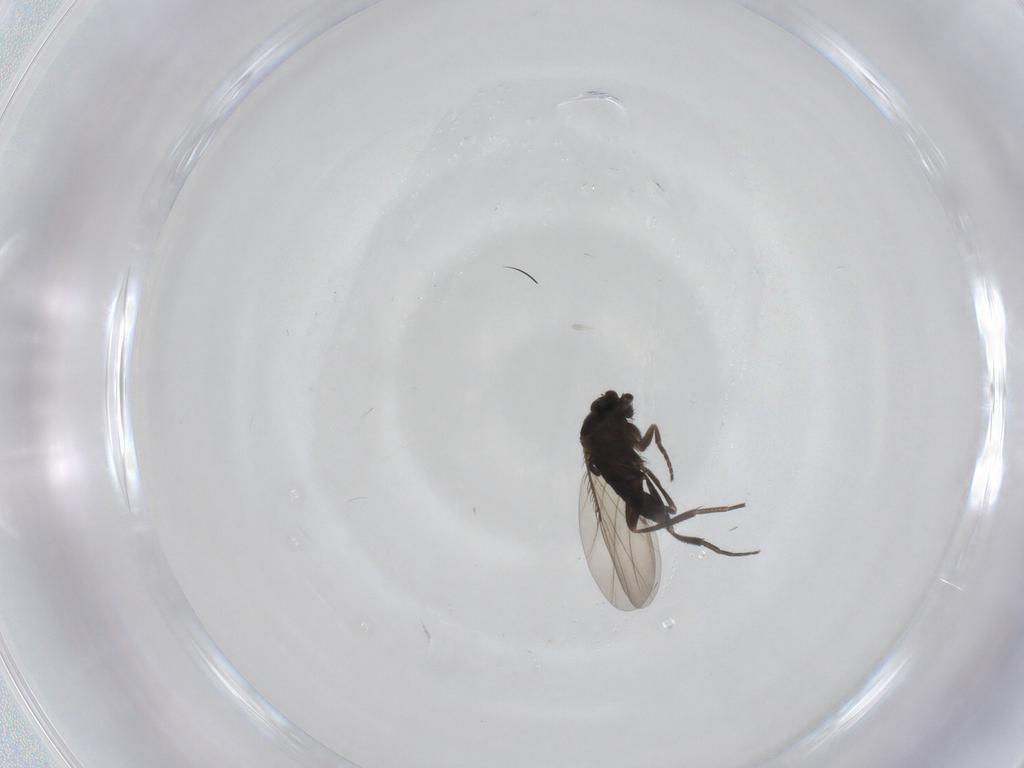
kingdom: Animalia
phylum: Arthropoda
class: Insecta
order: Diptera
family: Phoridae
